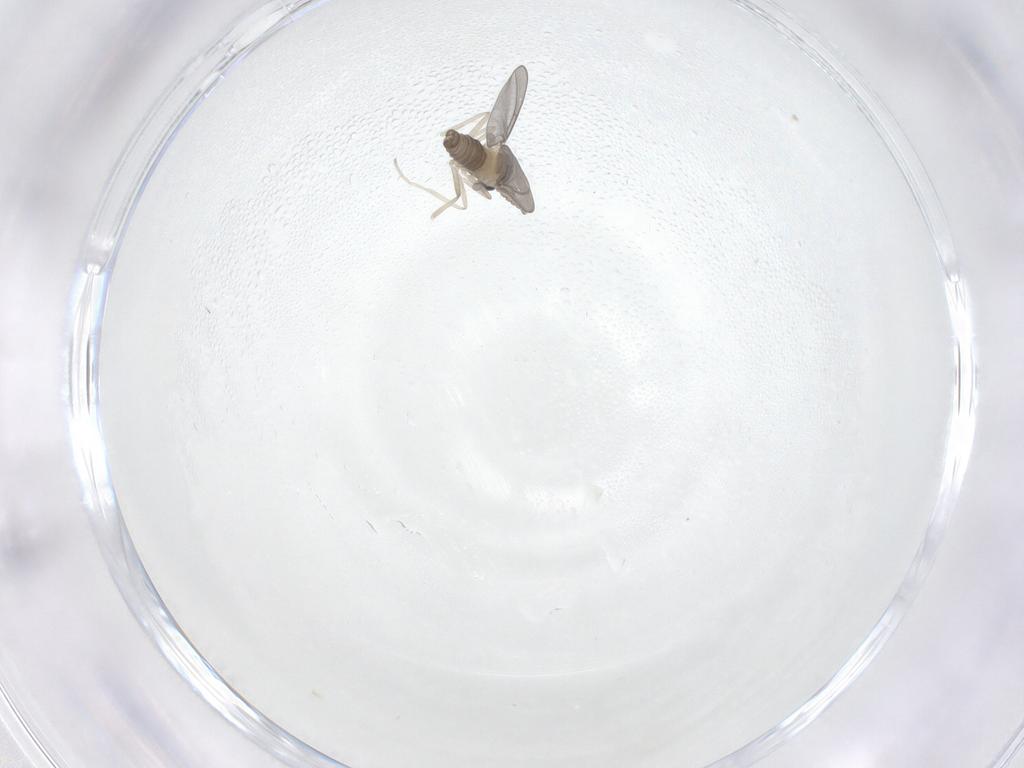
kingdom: Animalia
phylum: Arthropoda
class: Insecta
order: Diptera
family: Cecidomyiidae
